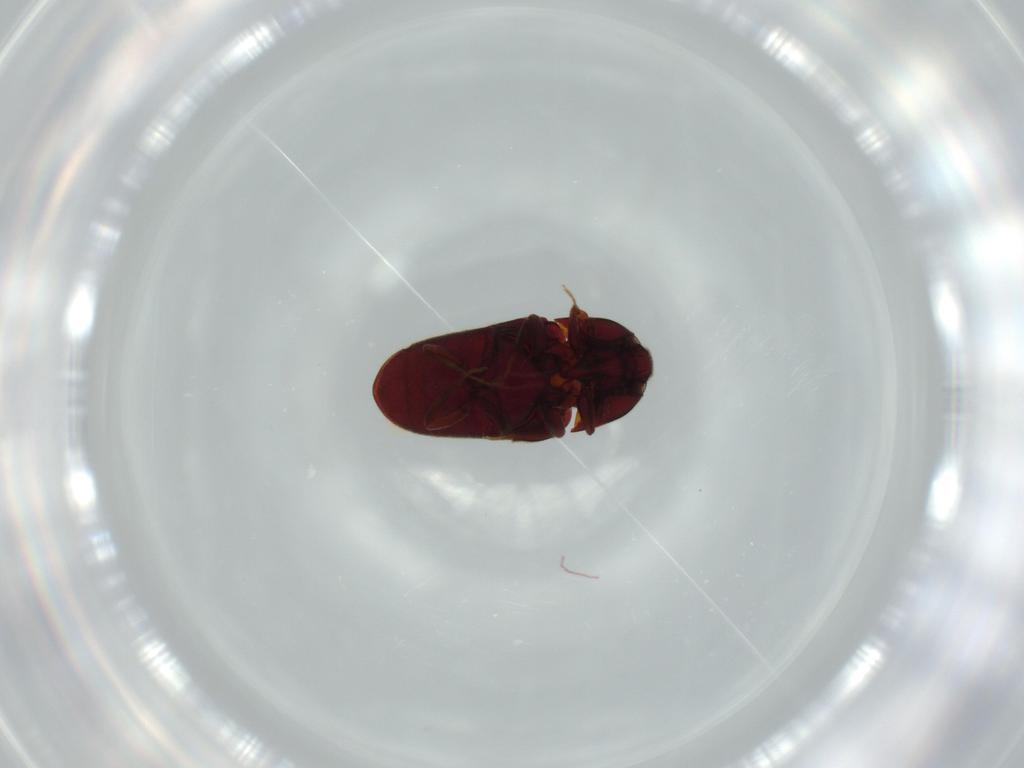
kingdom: Animalia
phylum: Arthropoda
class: Insecta
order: Coleoptera
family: Throscidae
